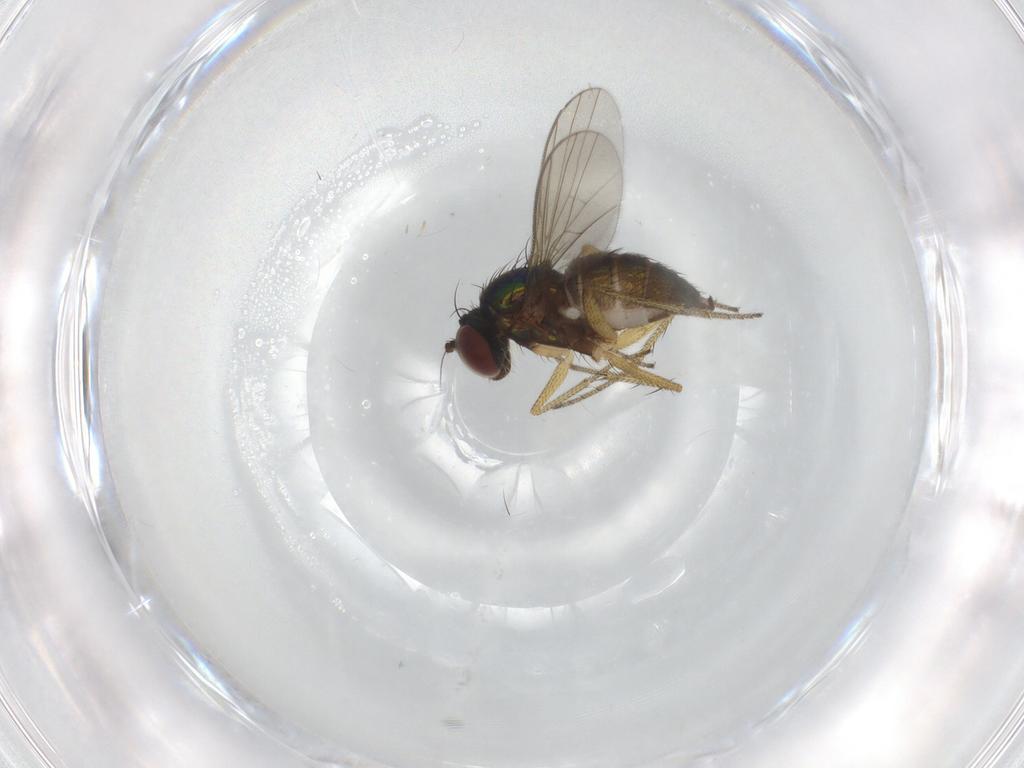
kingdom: Animalia
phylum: Arthropoda
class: Insecta
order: Diptera
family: Dolichopodidae
